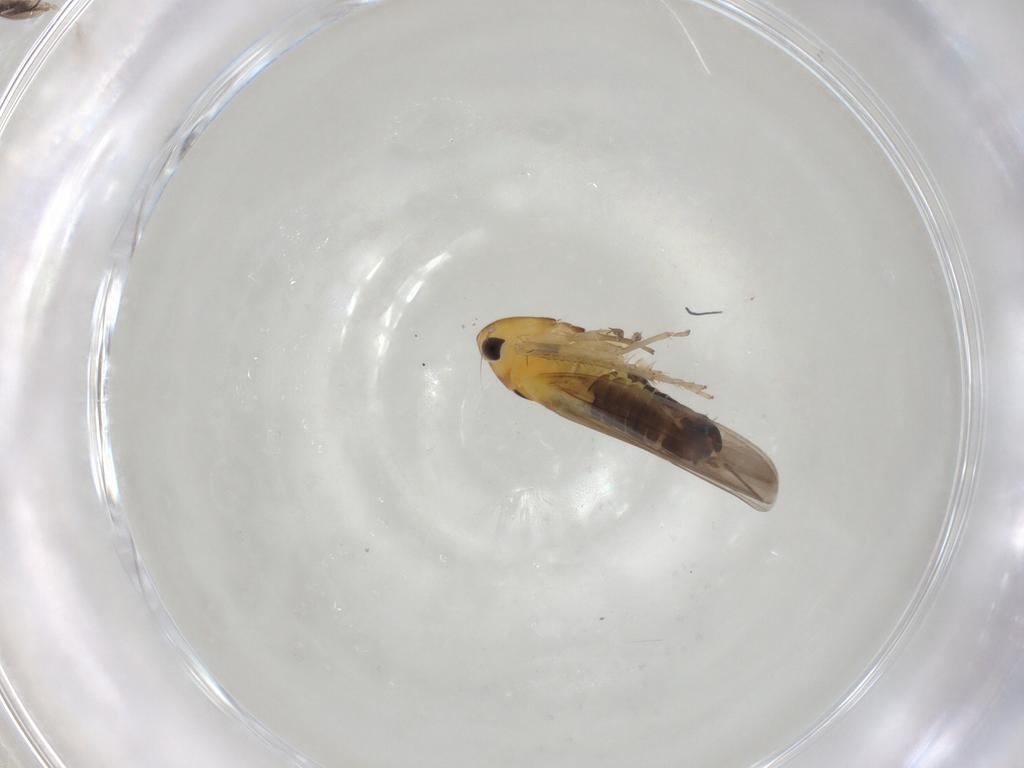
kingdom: Animalia
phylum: Arthropoda
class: Insecta
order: Hemiptera
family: Cicadellidae
